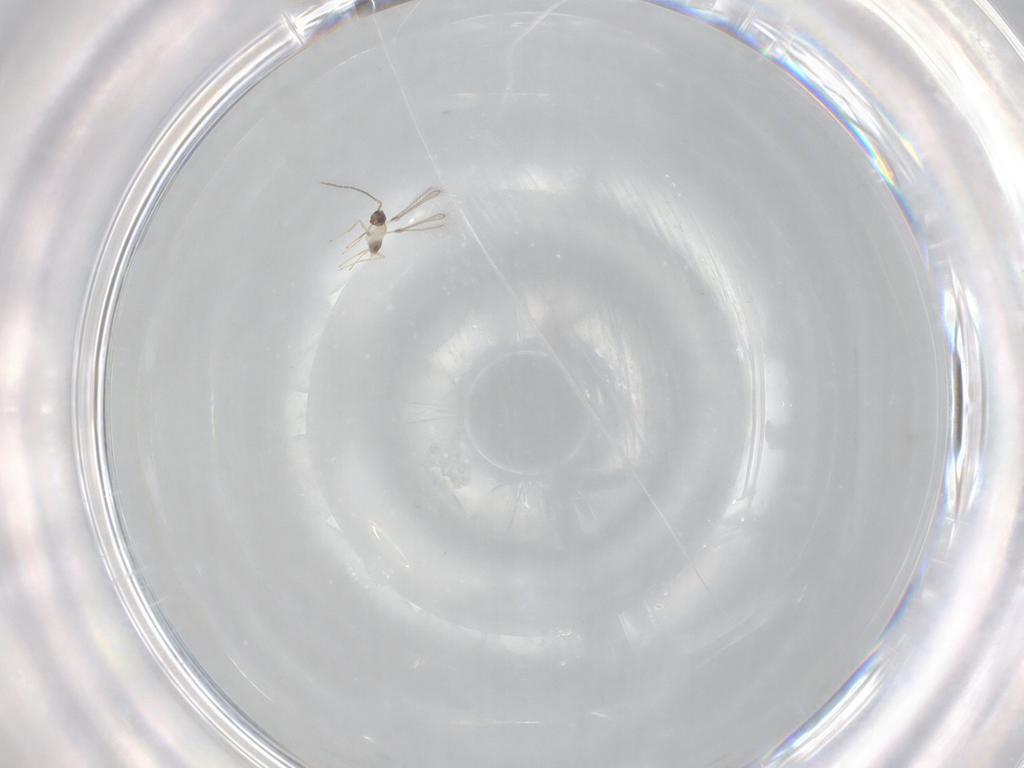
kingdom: Animalia
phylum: Arthropoda
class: Insecta
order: Hymenoptera
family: Mymaridae
